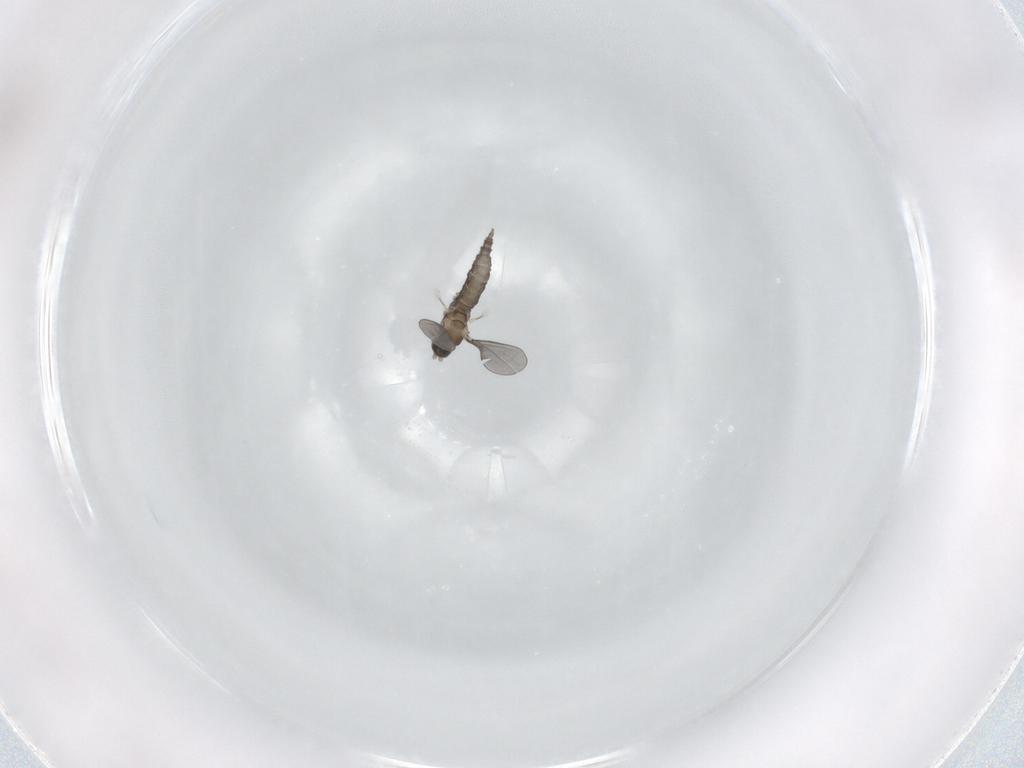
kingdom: Animalia
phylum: Arthropoda
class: Insecta
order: Diptera
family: Cecidomyiidae
